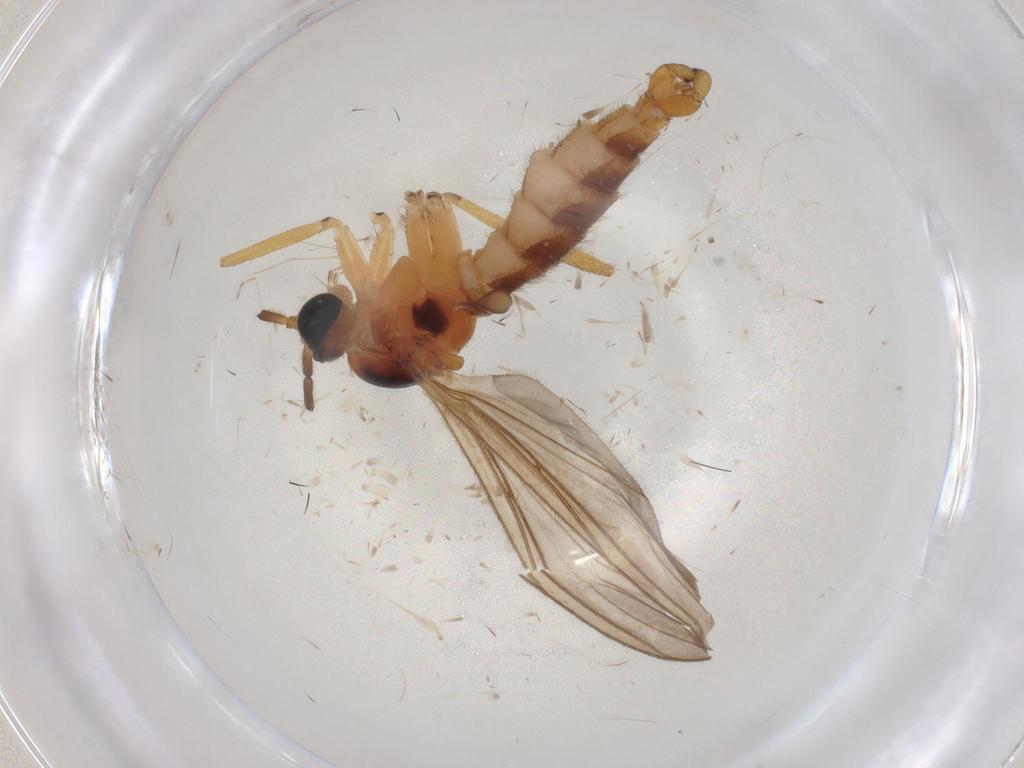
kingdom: Animalia
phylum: Arthropoda
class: Insecta
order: Diptera
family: Sciaridae
